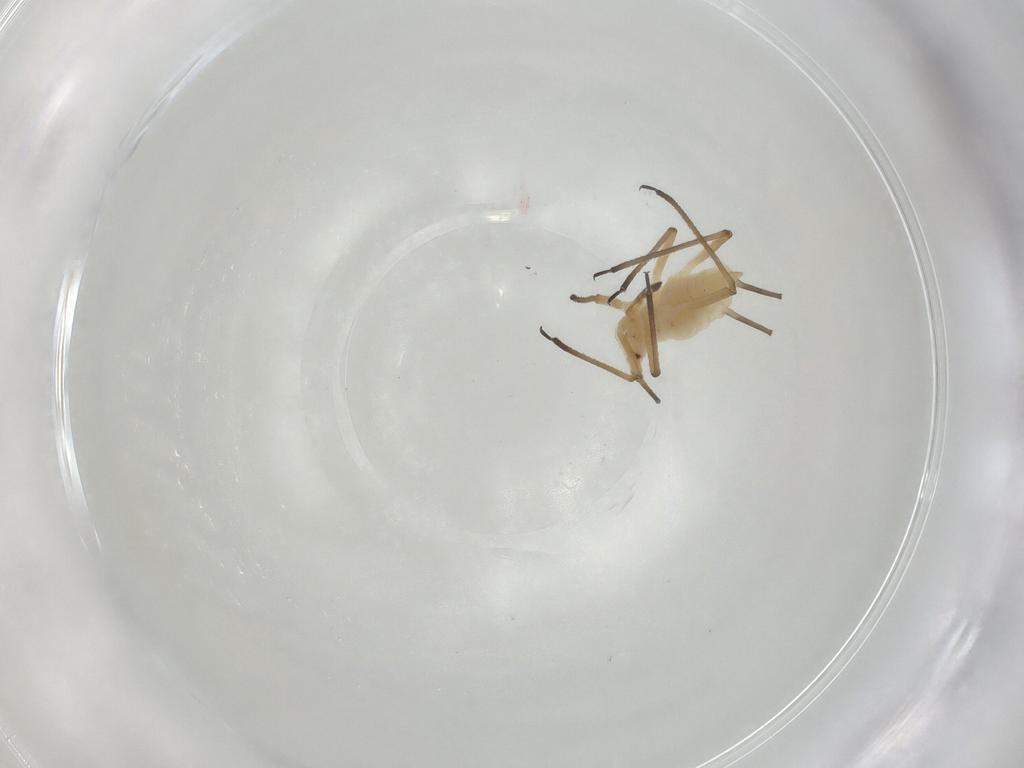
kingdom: Animalia
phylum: Arthropoda
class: Insecta
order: Hemiptera
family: Aphididae
